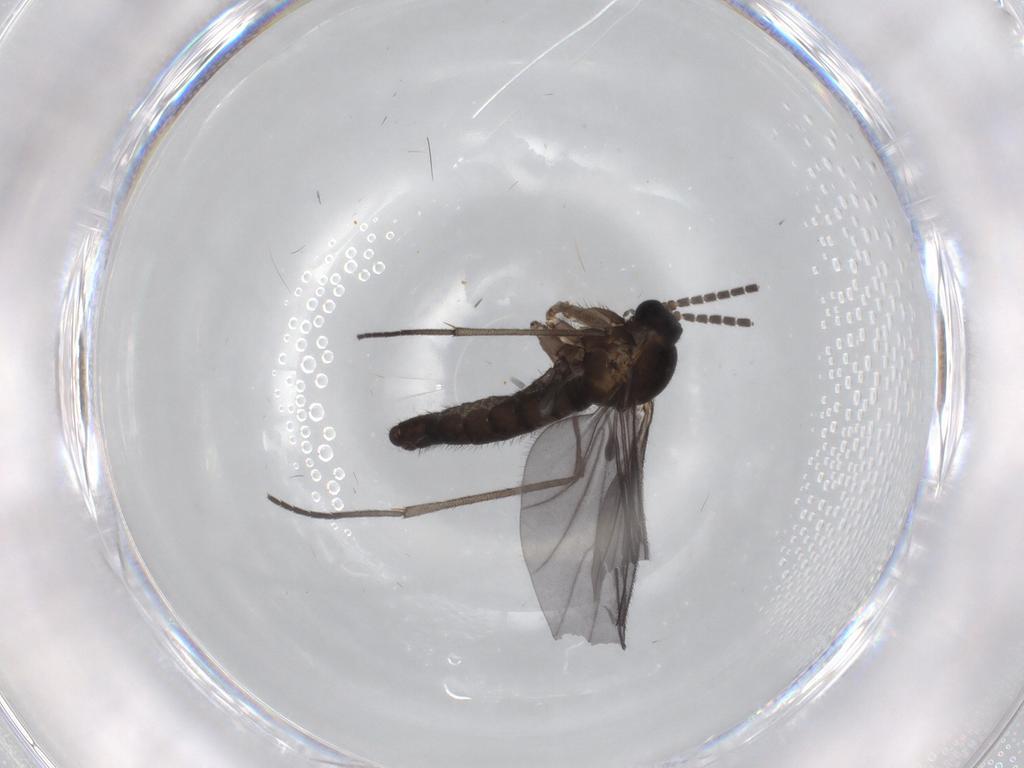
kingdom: Animalia
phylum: Arthropoda
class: Insecta
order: Diptera
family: Sciaridae
